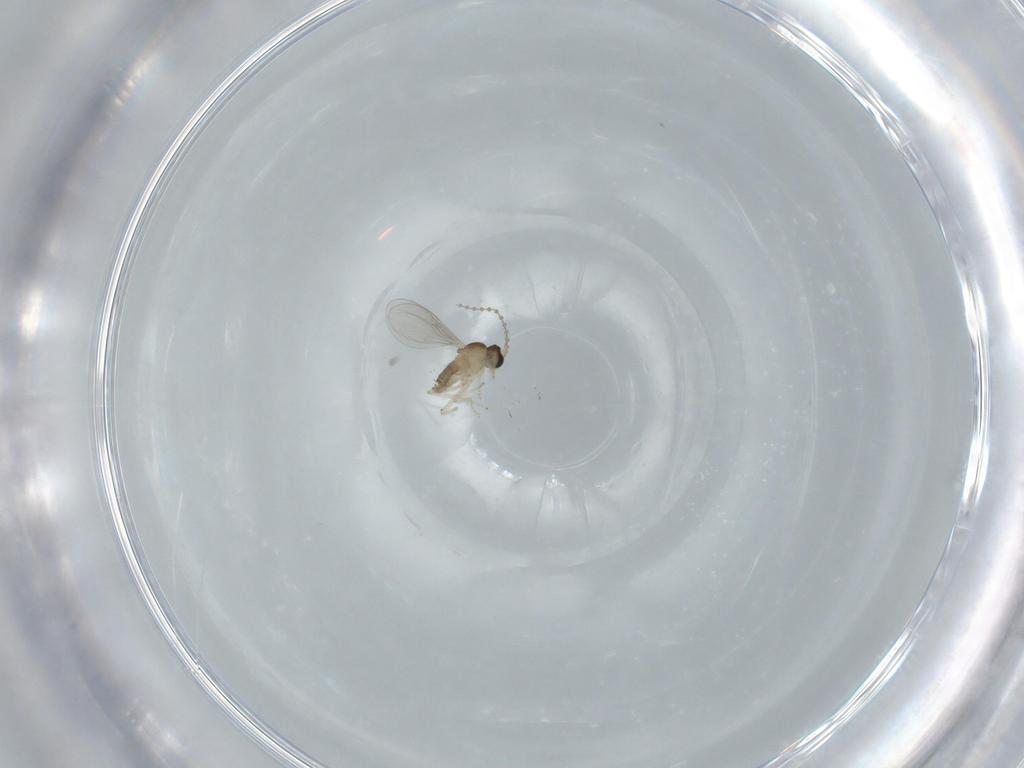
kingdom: Animalia
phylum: Arthropoda
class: Insecta
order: Diptera
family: Cecidomyiidae
